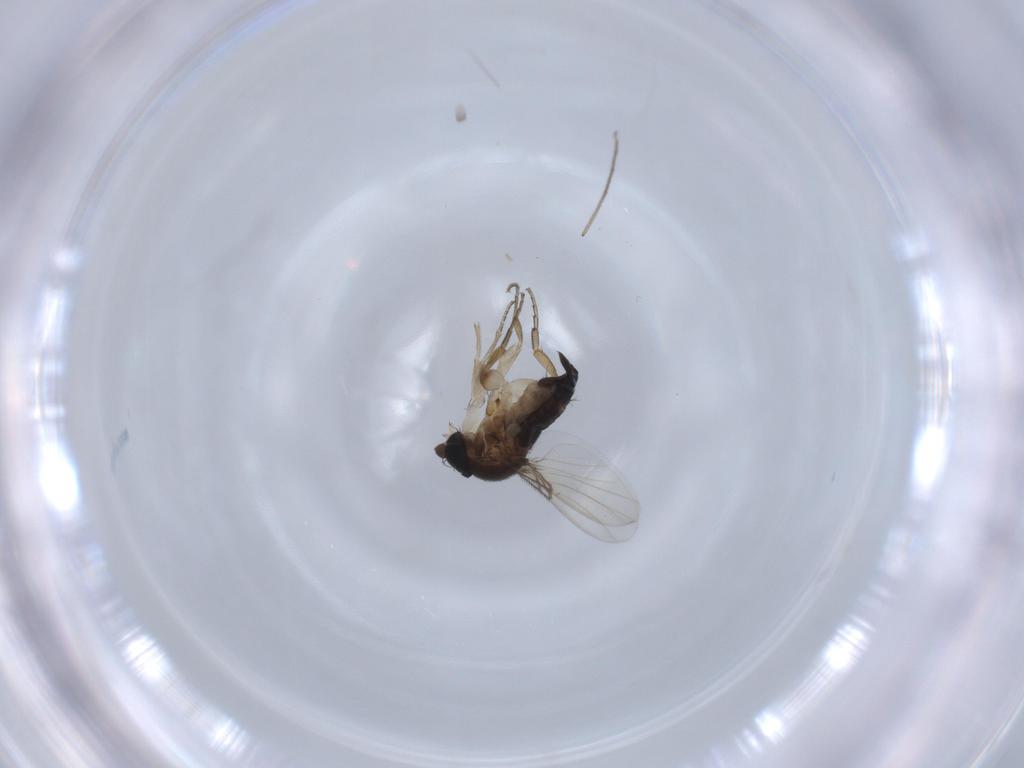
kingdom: Animalia
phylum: Arthropoda
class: Insecta
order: Diptera
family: Phoridae
